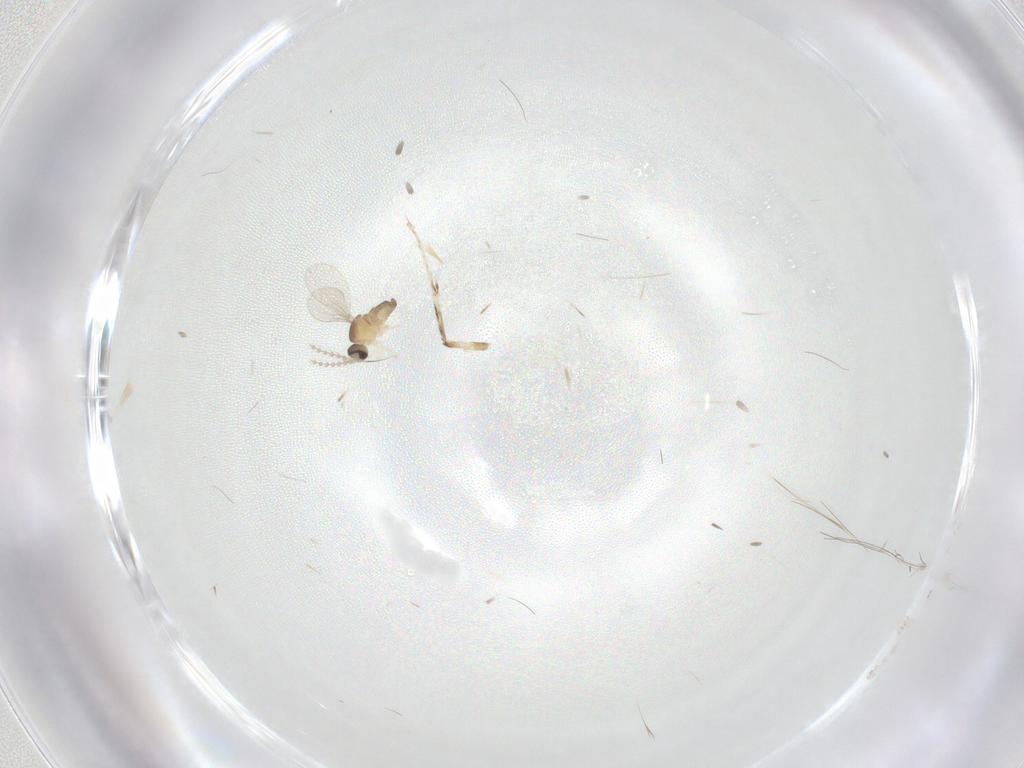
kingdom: Animalia
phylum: Arthropoda
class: Insecta
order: Diptera
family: Cecidomyiidae
